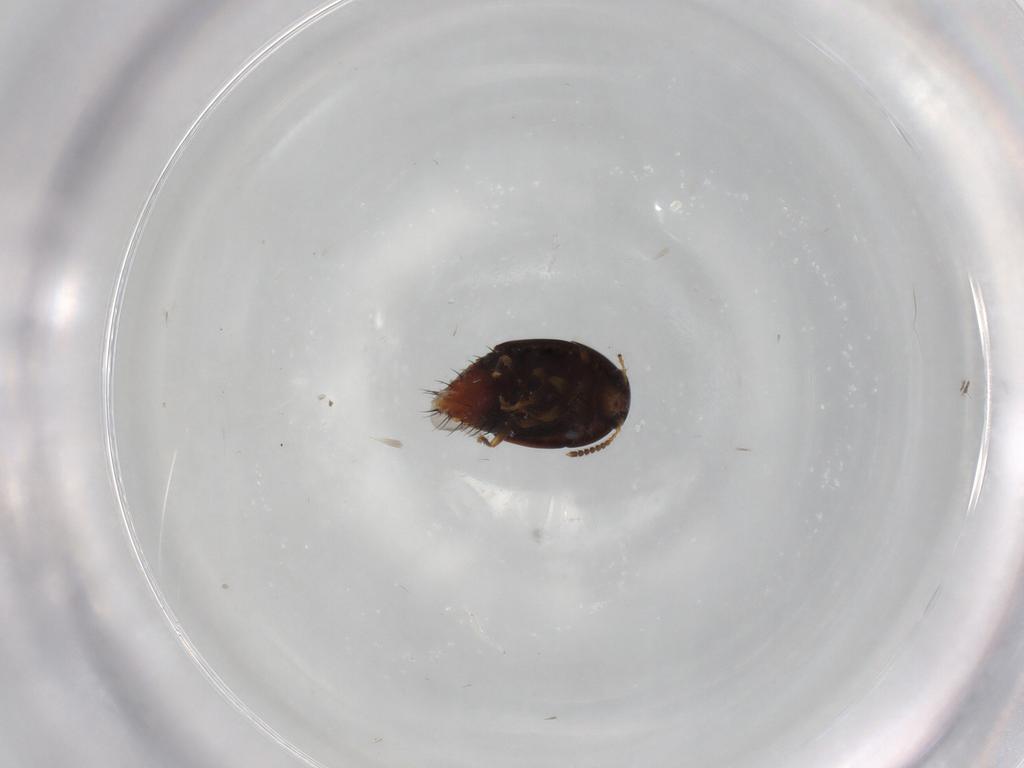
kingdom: Animalia
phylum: Arthropoda
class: Insecta
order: Coleoptera
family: Staphylinidae
